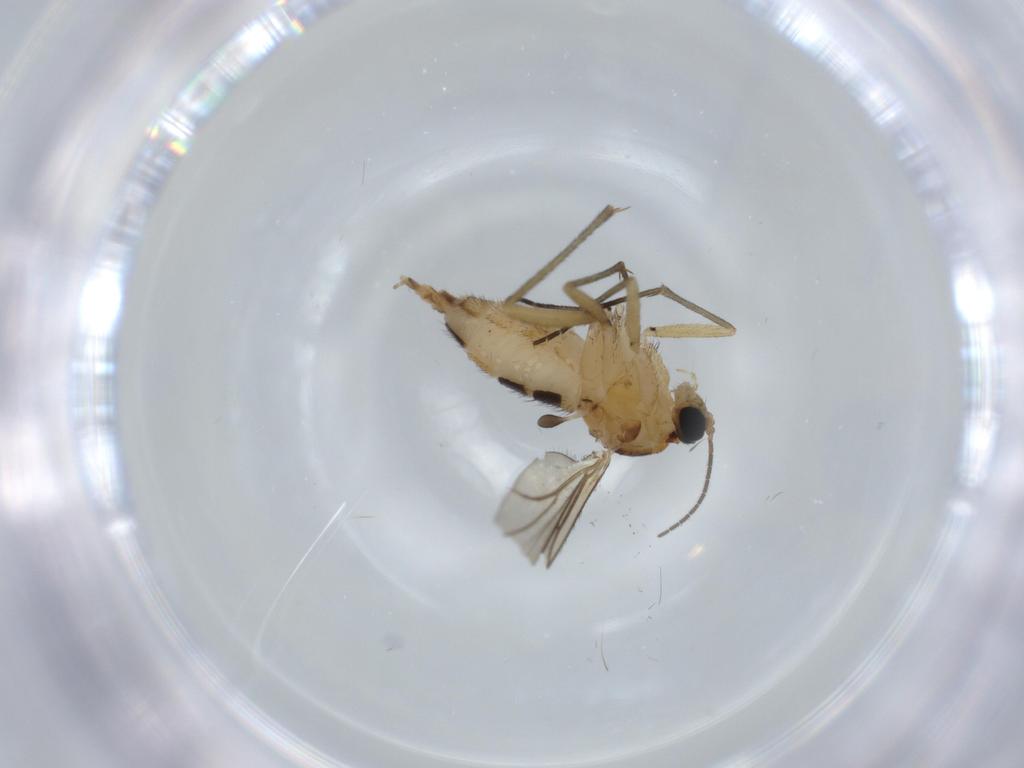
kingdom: Animalia
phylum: Arthropoda
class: Insecta
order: Diptera
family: Sciaridae
